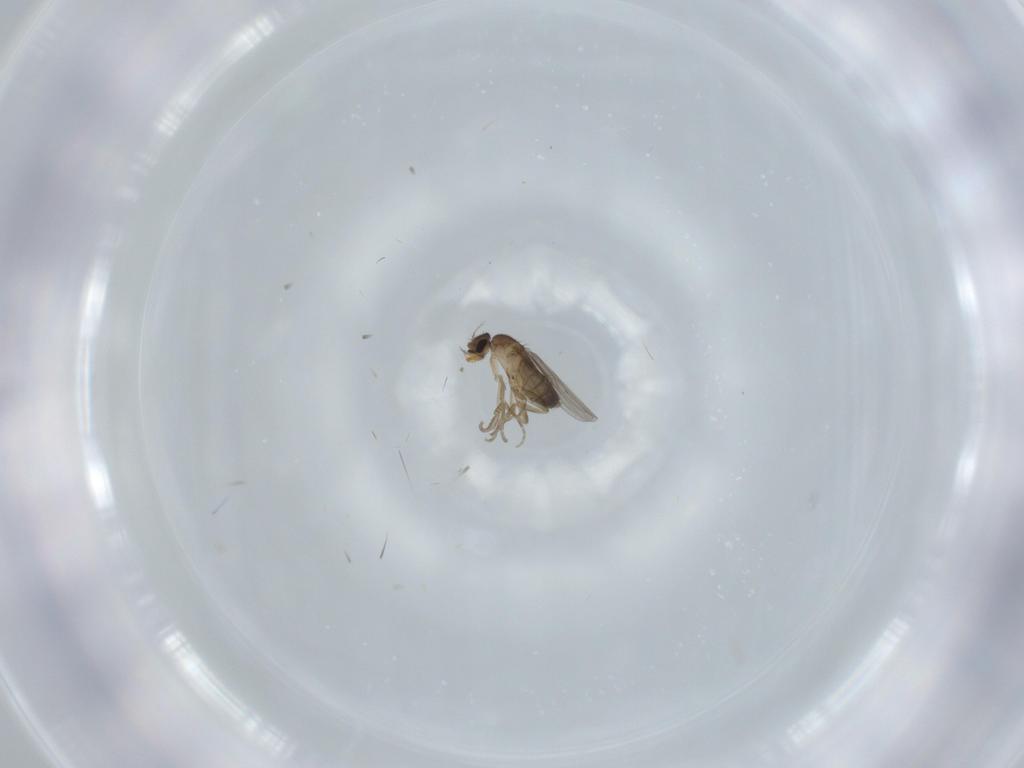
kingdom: Animalia
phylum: Arthropoda
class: Insecta
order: Diptera
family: Phoridae
